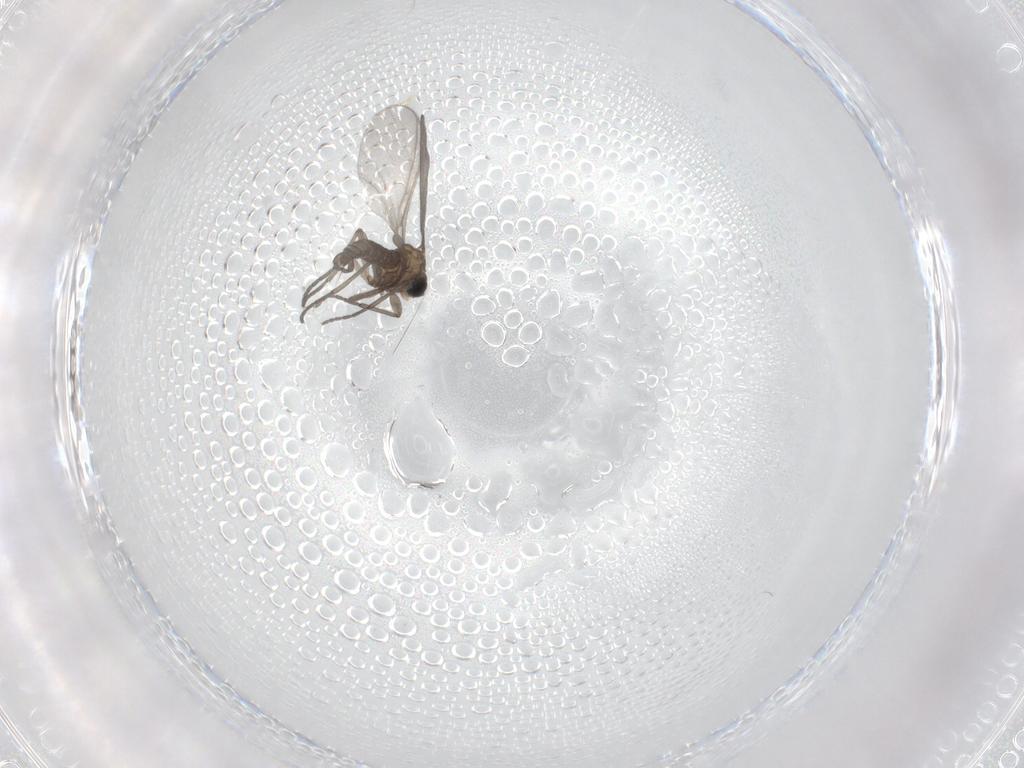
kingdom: Animalia
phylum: Arthropoda
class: Insecta
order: Diptera
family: Sciaridae
